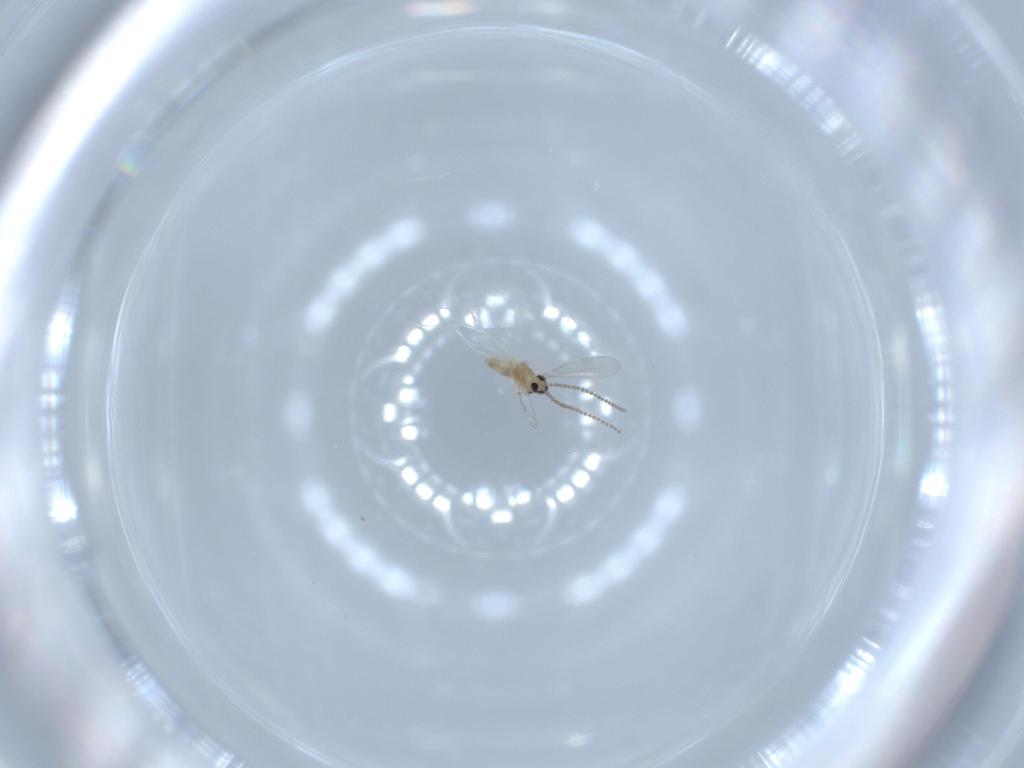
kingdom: Animalia
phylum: Arthropoda
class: Insecta
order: Diptera
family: Cecidomyiidae
